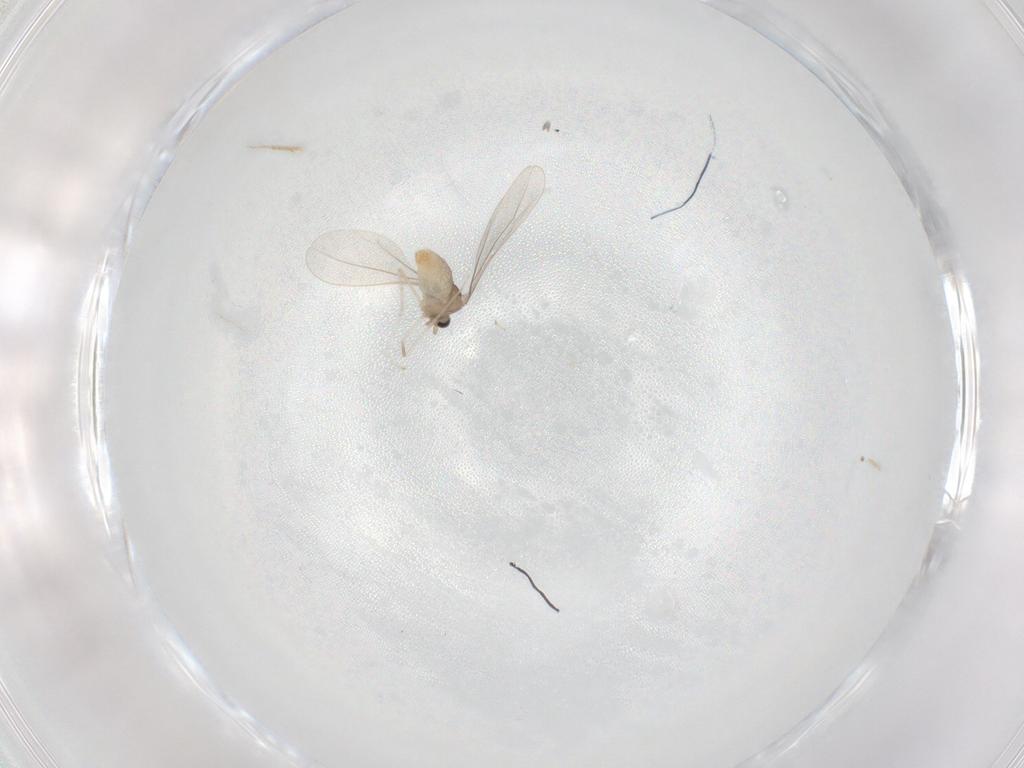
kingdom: Animalia
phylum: Arthropoda
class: Insecta
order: Diptera
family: Cecidomyiidae
